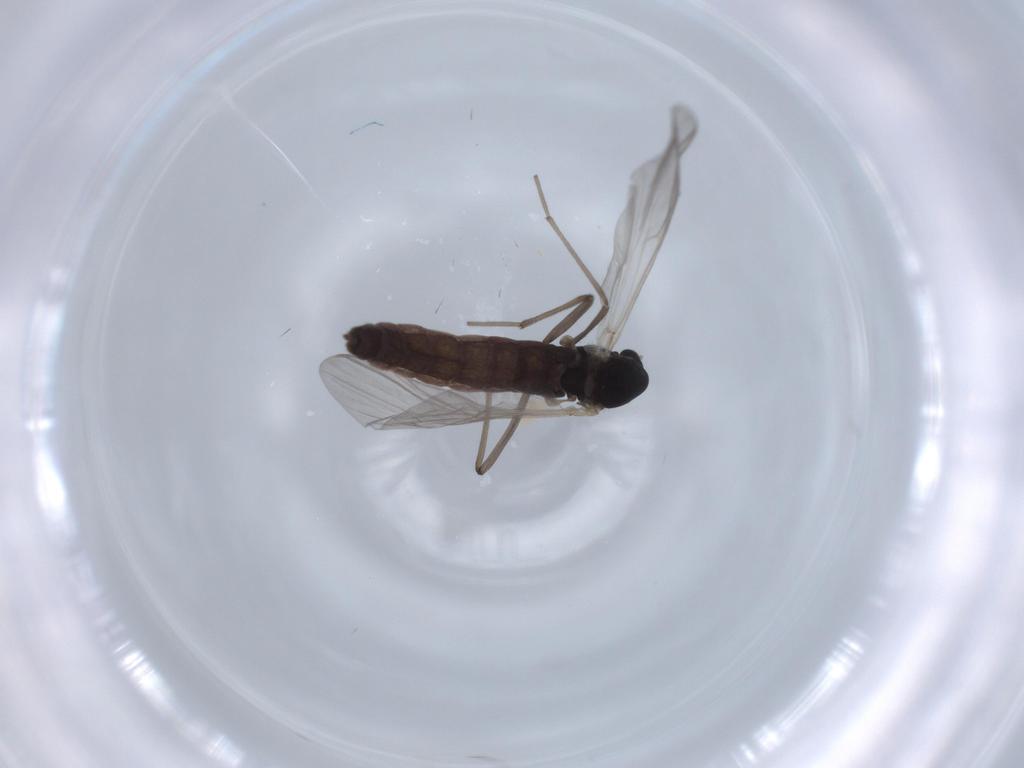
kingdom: Animalia
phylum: Arthropoda
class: Insecta
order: Diptera
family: Chironomidae
